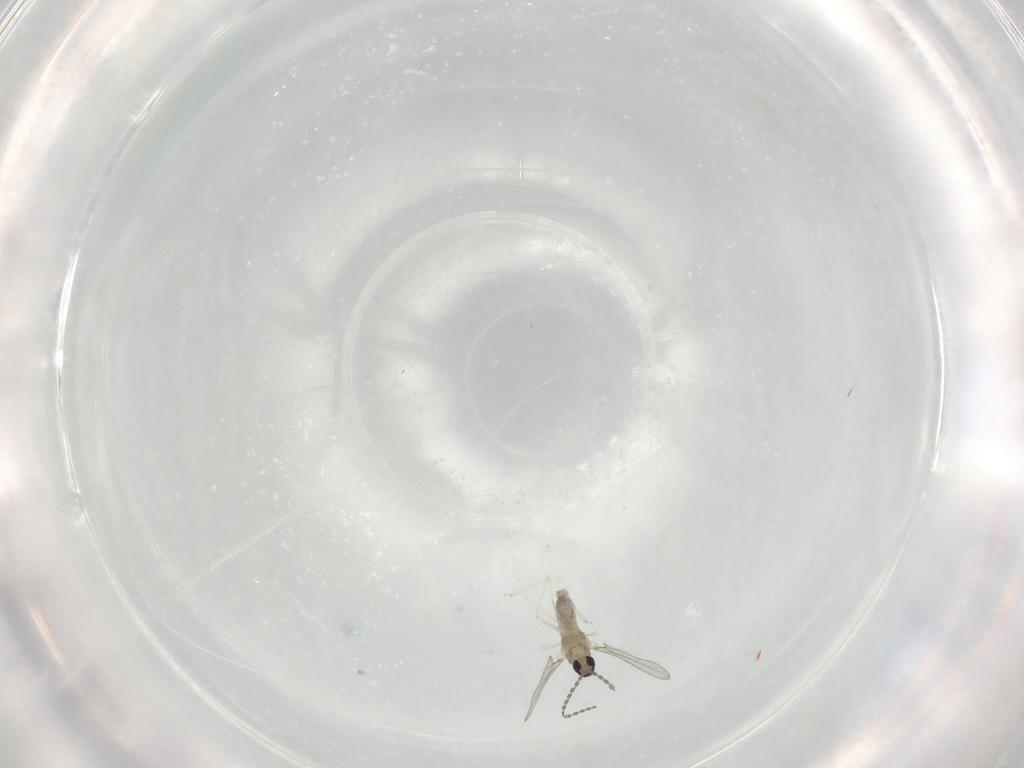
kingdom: Animalia
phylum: Arthropoda
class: Insecta
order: Diptera
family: Cecidomyiidae
